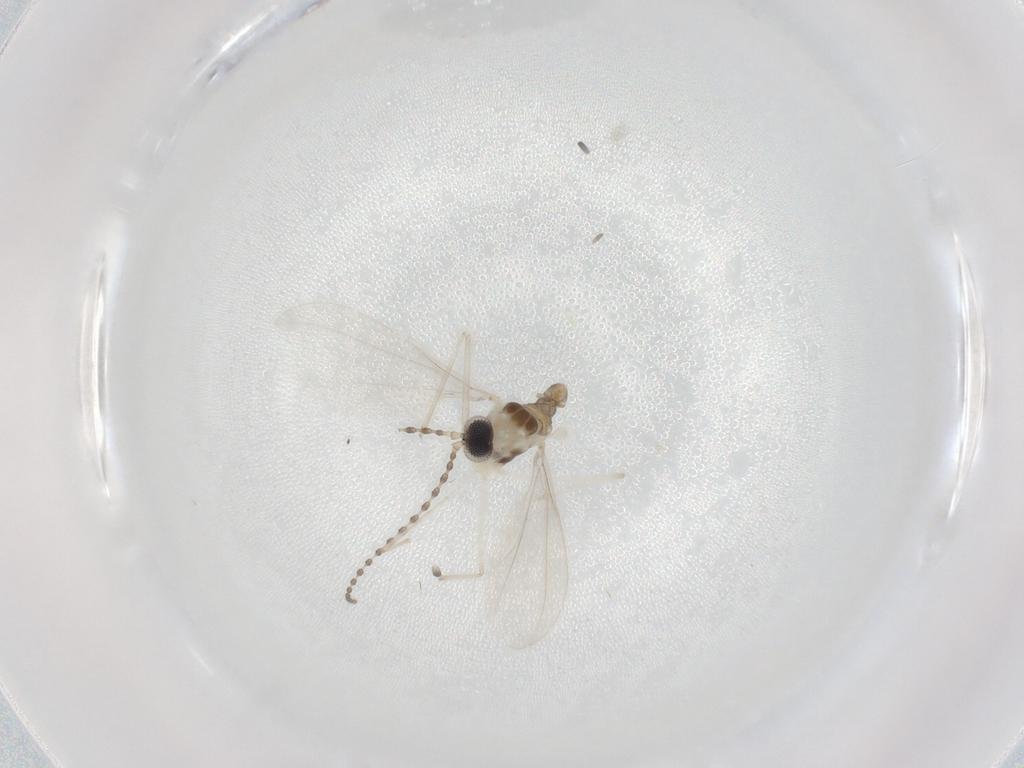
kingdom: Animalia
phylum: Arthropoda
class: Insecta
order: Diptera
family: Cecidomyiidae
